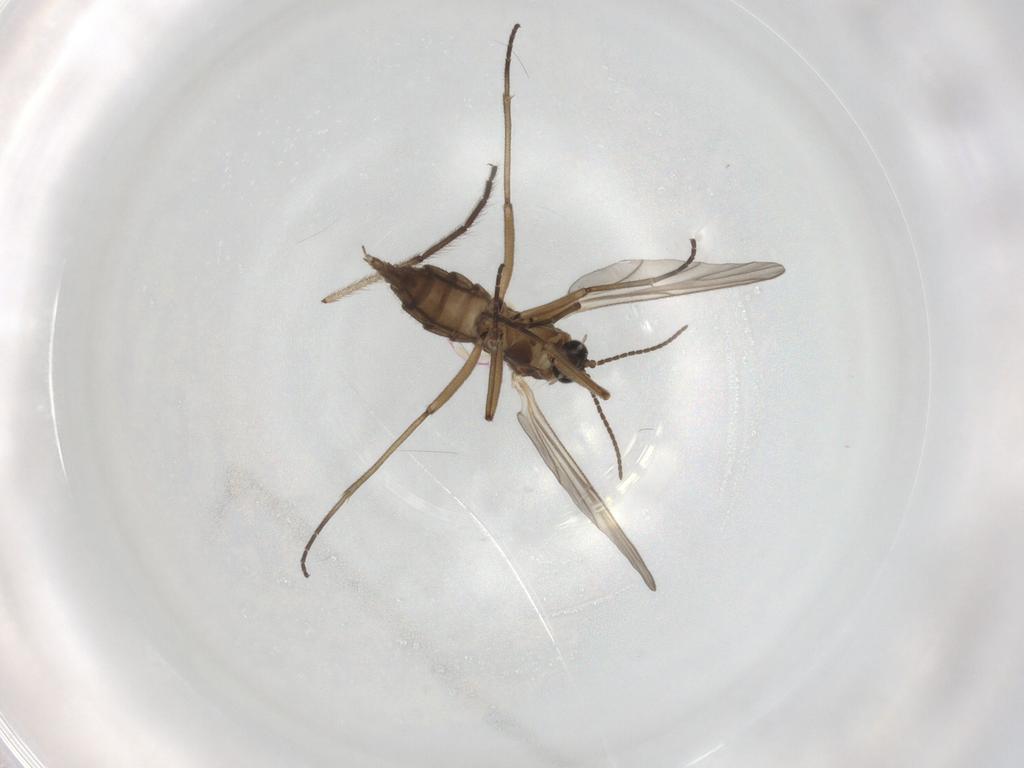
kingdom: Animalia
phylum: Arthropoda
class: Insecta
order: Diptera
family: Chironomidae
